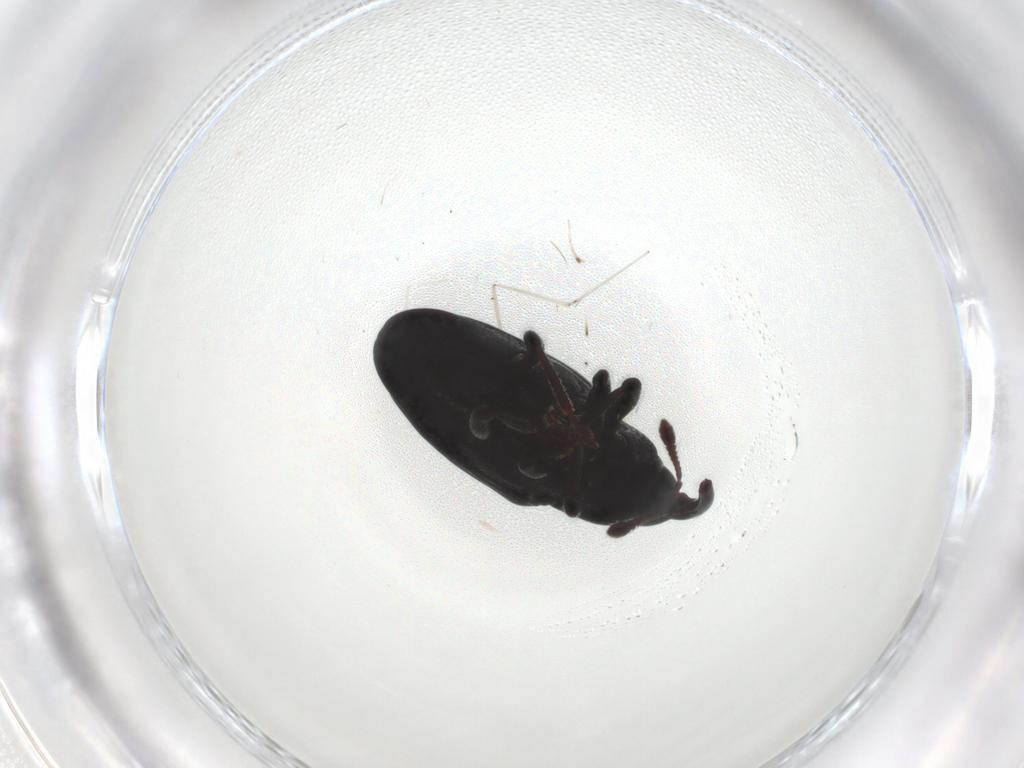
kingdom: Animalia
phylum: Arthropoda
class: Insecta
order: Coleoptera
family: Curculionidae
